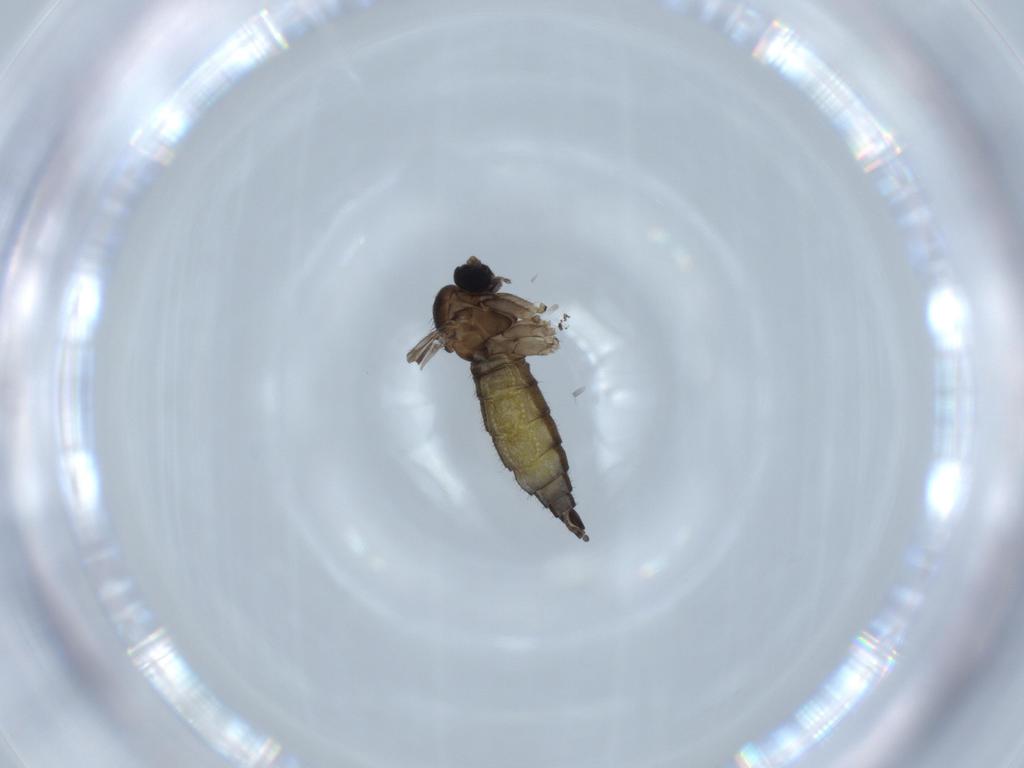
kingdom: Animalia
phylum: Arthropoda
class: Insecta
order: Diptera
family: Sciaridae
